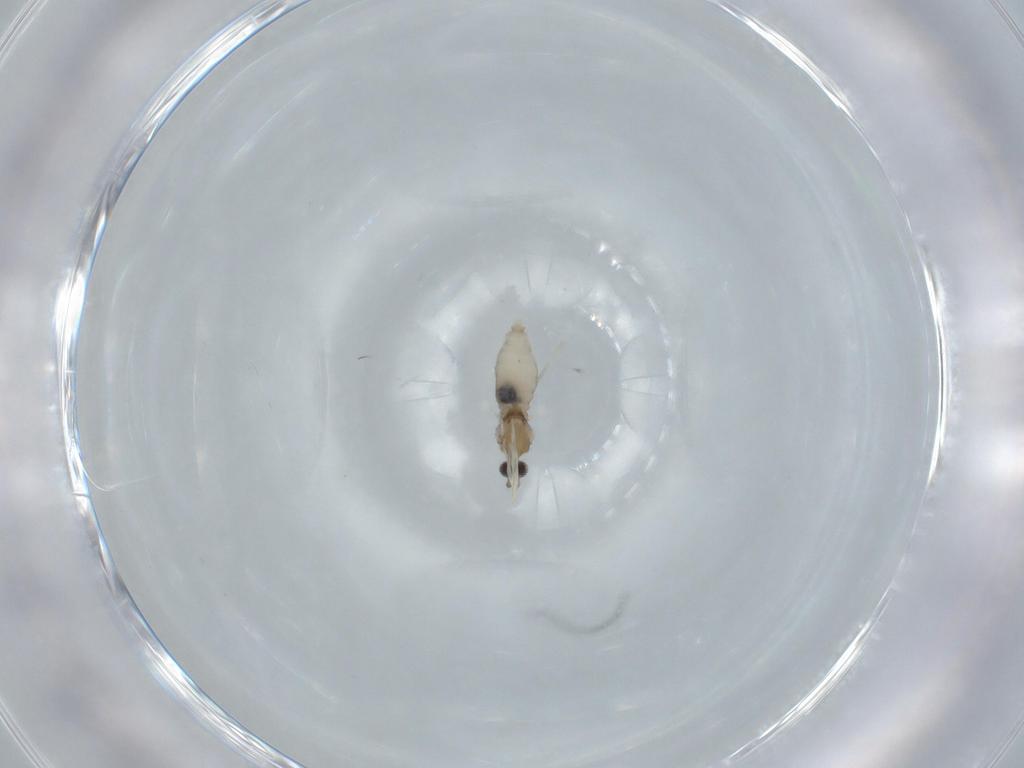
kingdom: Animalia
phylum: Arthropoda
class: Insecta
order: Diptera
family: Cecidomyiidae
